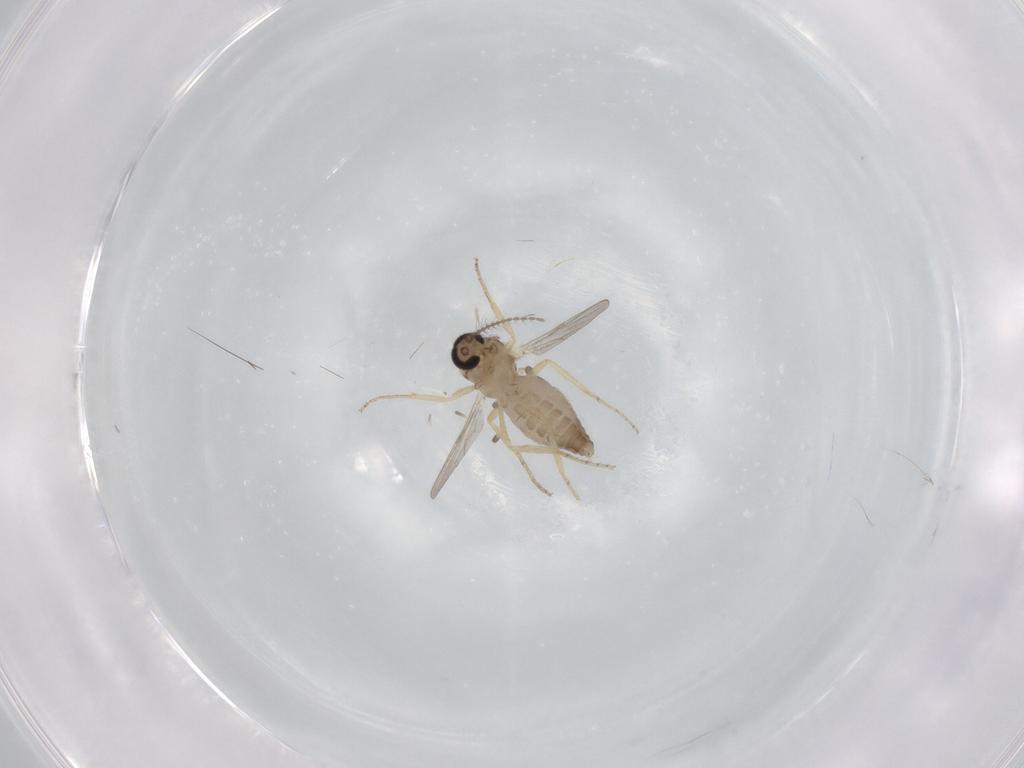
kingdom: Animalia
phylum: Arthropoda
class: Insecta
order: Diptera
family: Ceratopogonidae
